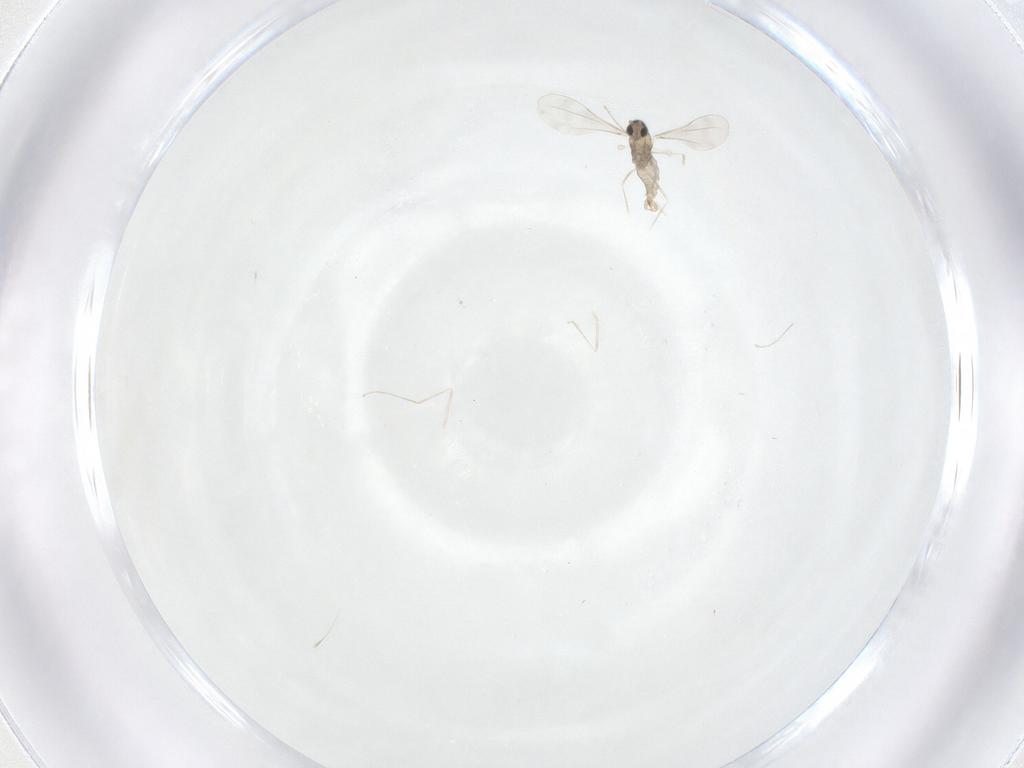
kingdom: Animalia
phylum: Arthropoda
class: Insecta
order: Diptera
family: Cecidomyiidae
